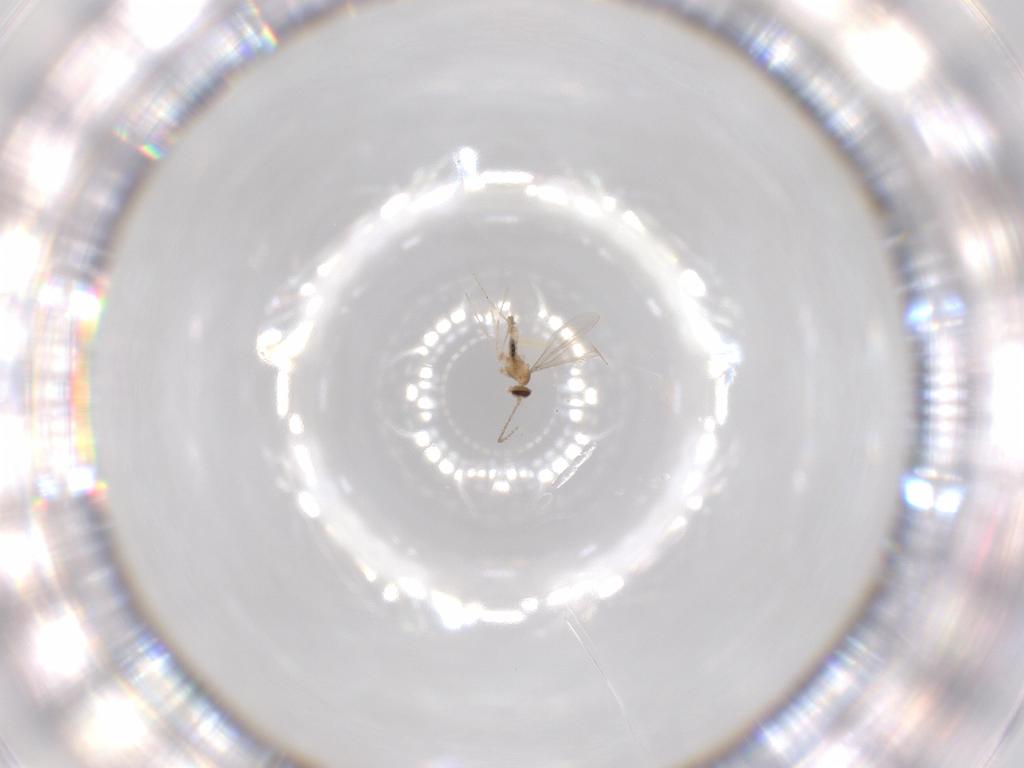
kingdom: Animalia
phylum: Arthropoda
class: Insecta
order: Diptera
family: Cecidomyiidae
